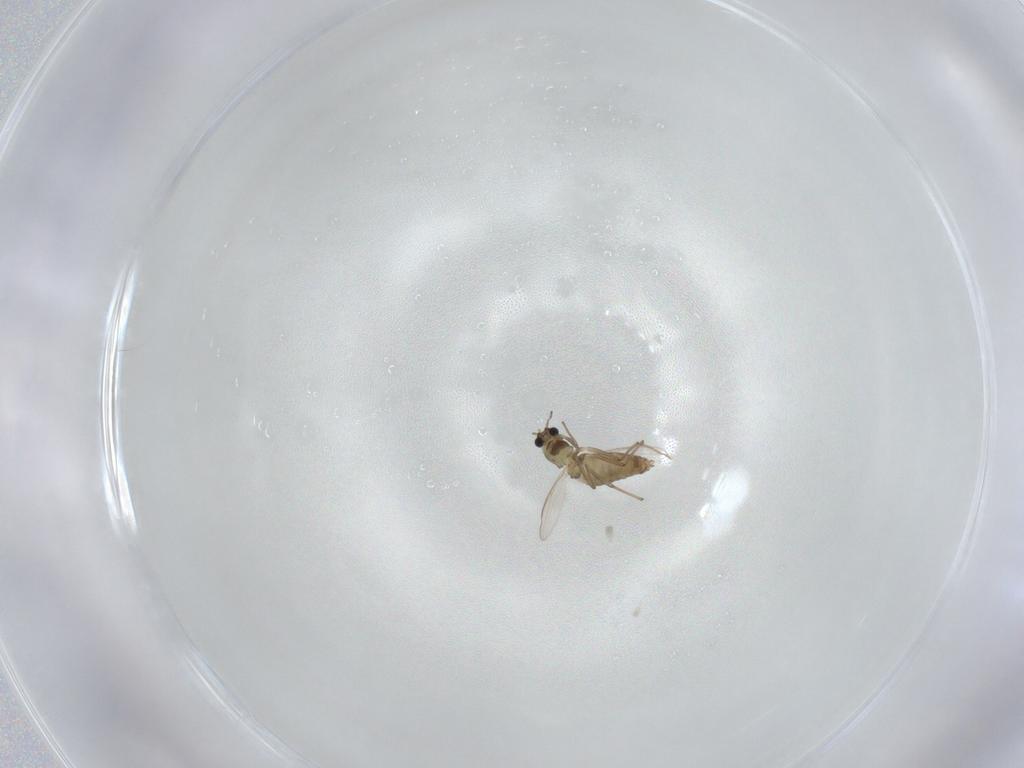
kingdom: Animalia
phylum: Arthropoda
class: Insecta
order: Diptera
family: Chironomidae
